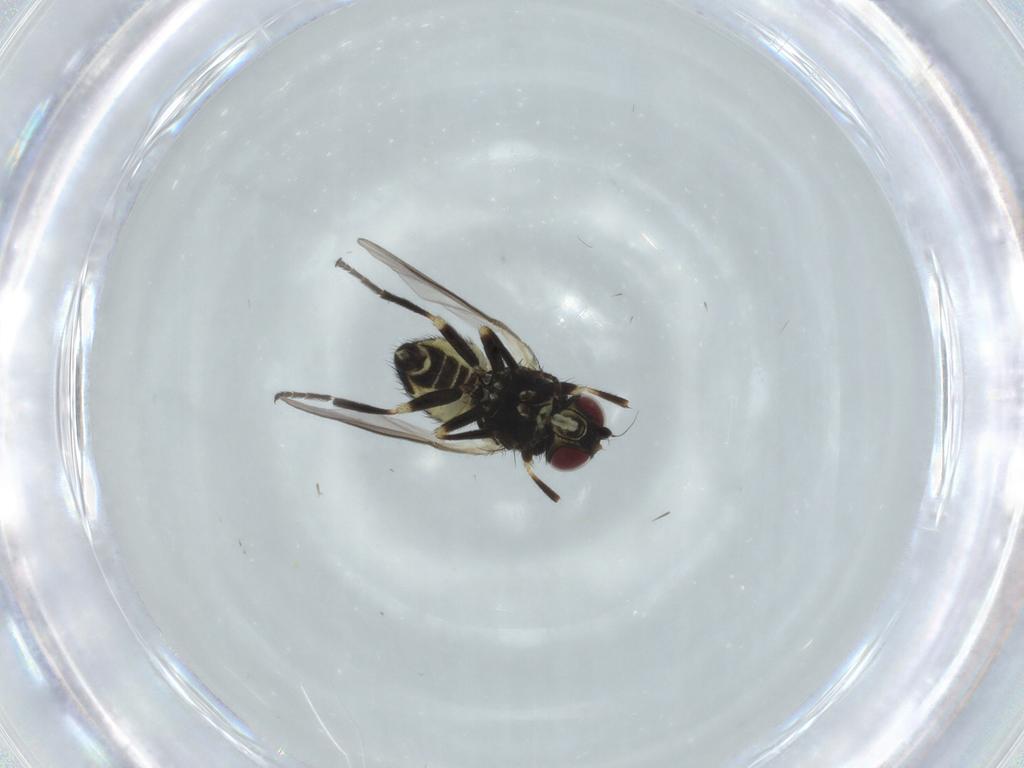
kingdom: Animalia
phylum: Arthropoda
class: Insecta
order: Diptera
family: Agromyzidae
